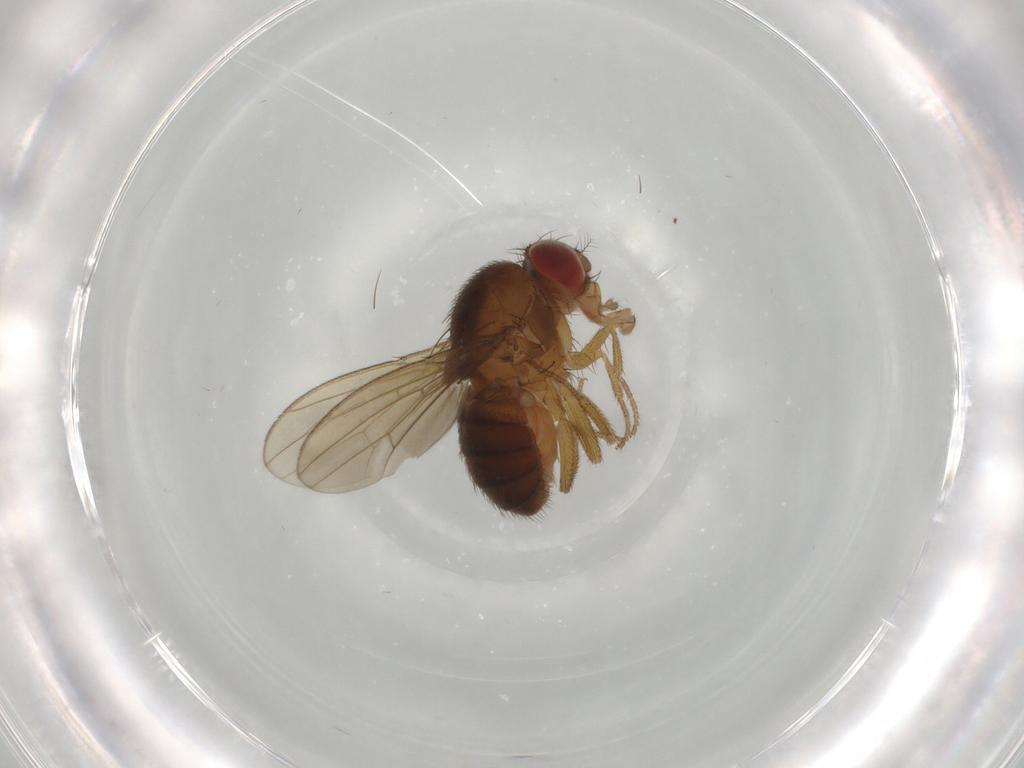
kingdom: Animalia
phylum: Arthropoda
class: Insecta
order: Diptera
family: Drosophilidae
